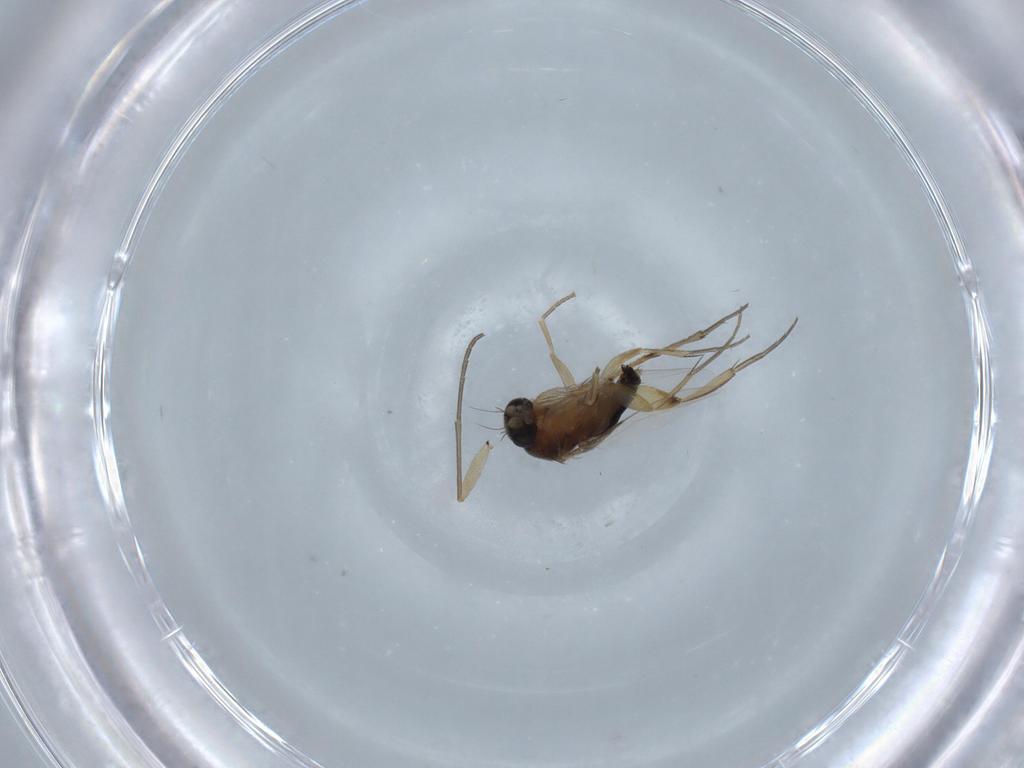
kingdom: Animalia
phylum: Arthropoda
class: Insecta
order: Diptera
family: Phoridae
